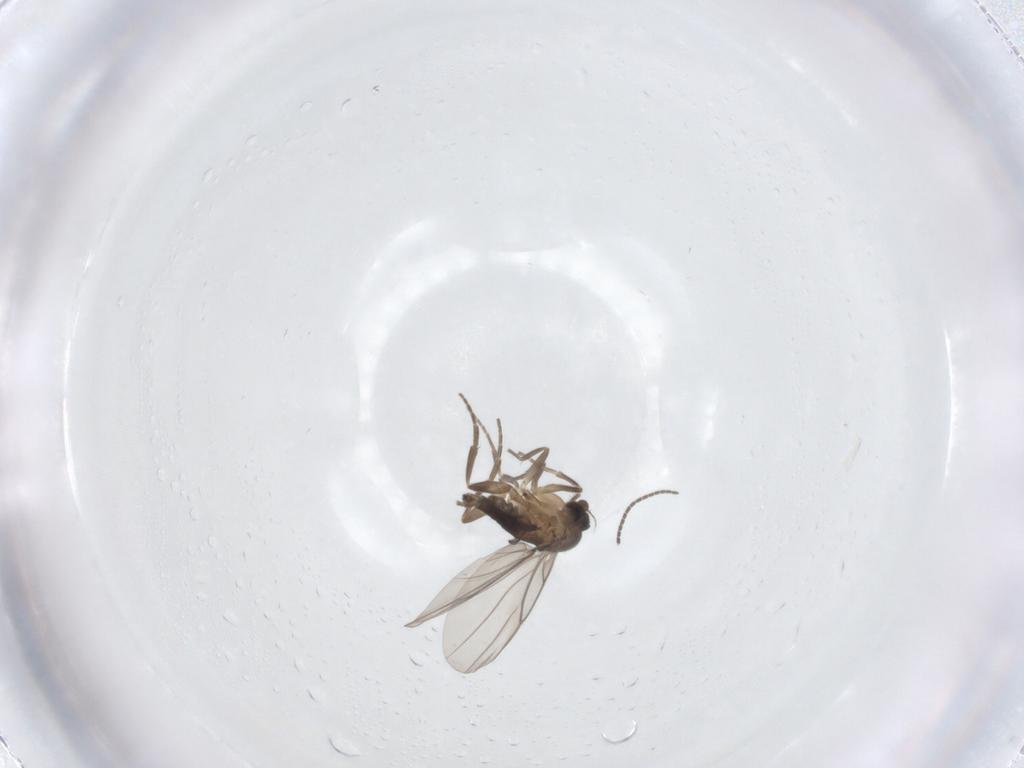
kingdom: Animalia
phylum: Arthropoda
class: Insecta
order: Diptera
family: Sciaridae
